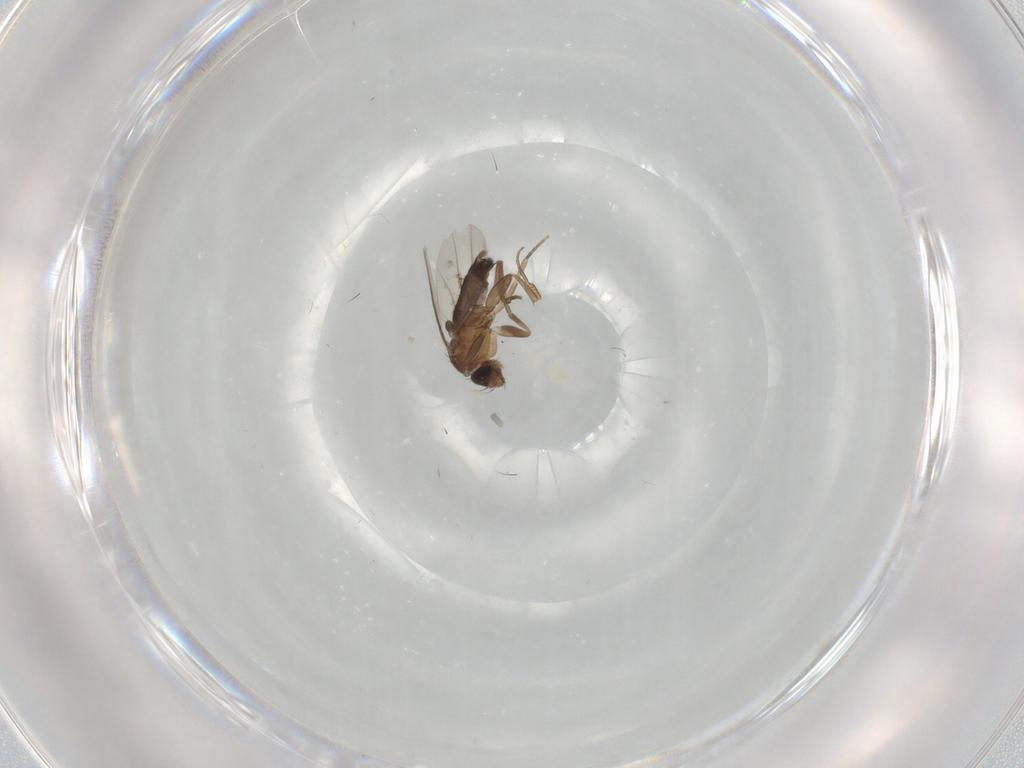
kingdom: Animalia
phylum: Arthropoda
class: Insecta
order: Diptera
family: Phoridae
